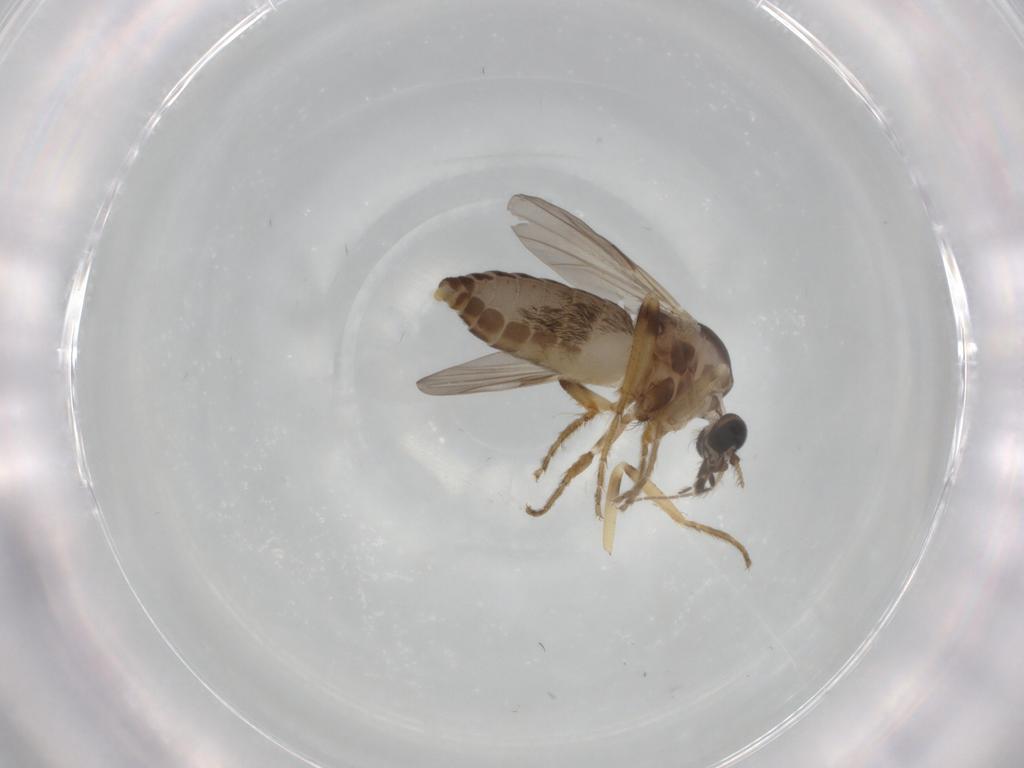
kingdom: Animalia
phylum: Arthropoda
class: Insecta
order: Diptera
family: Ceratopogonidae
